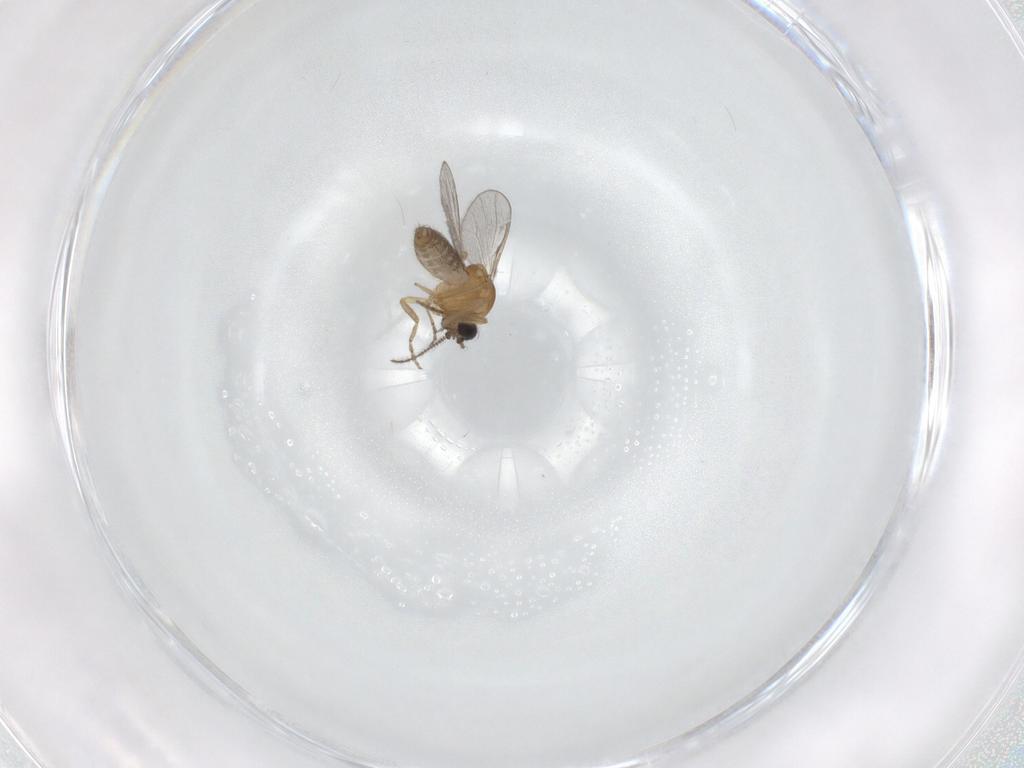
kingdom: Animalia
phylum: Arthropoda
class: Insecta
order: Diptera
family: Ceratopogonidae
